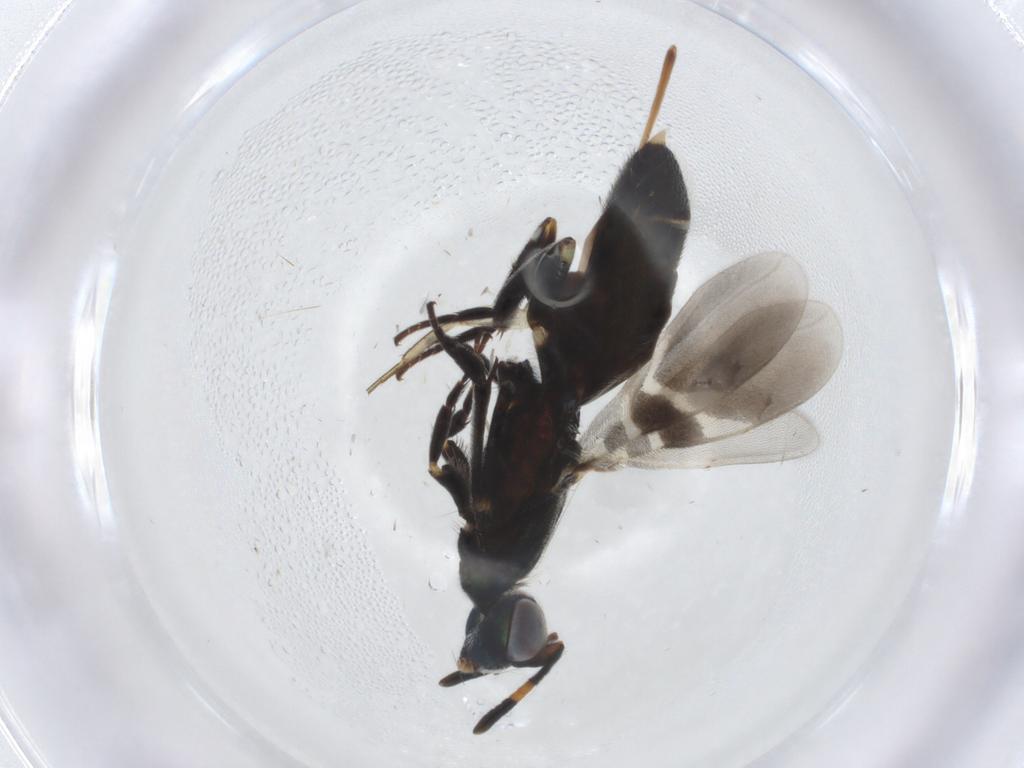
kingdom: Animalia
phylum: Arthropoda
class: Insecta
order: Hymenoptera
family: Eupelmidae
